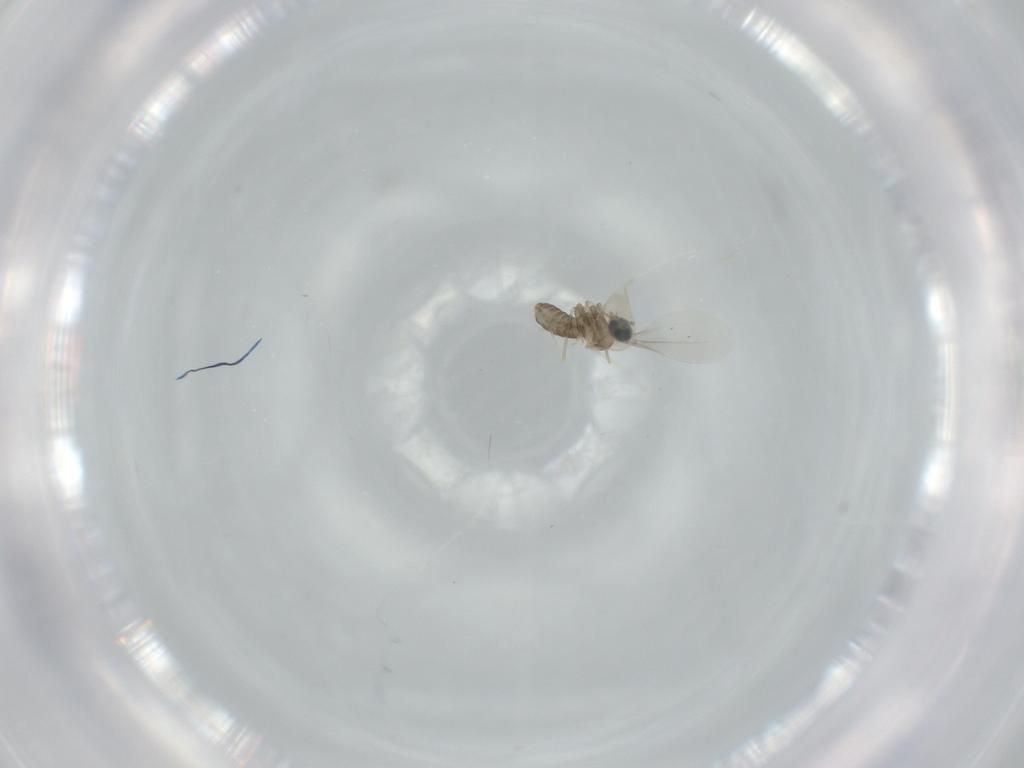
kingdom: Animalia
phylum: Arthropoda
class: Insecta
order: Diptera
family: Cecidomyiidae
